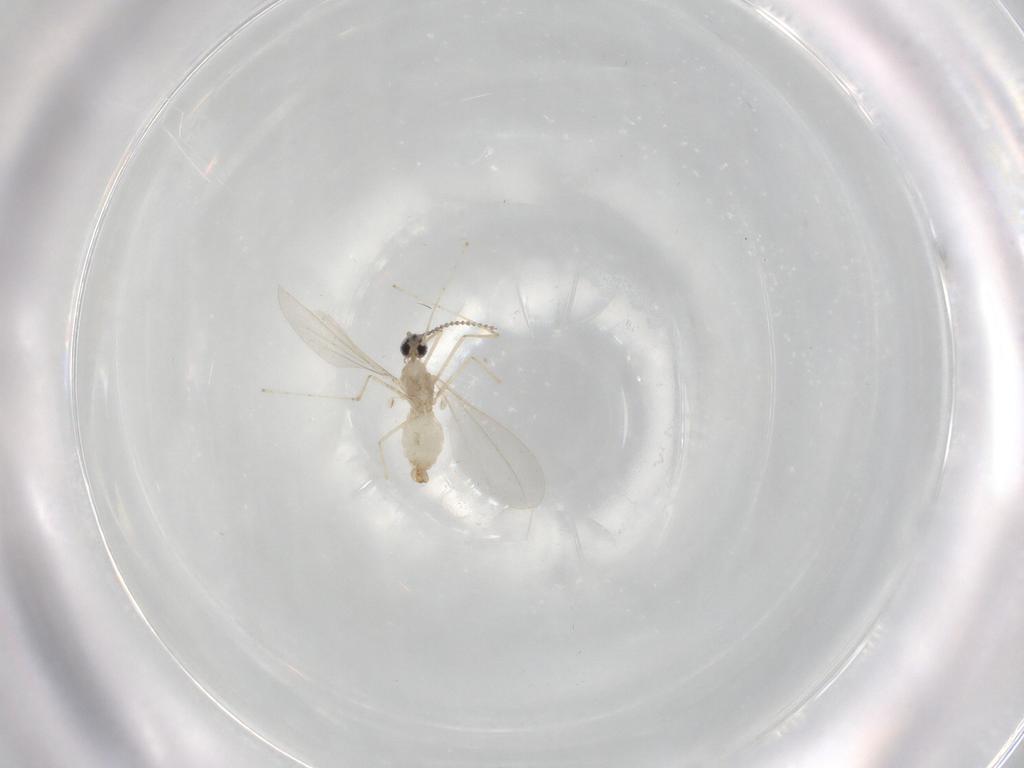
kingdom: Animalia
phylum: Arthropoda
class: Insecta
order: Diptera
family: Cecidomyiidae
